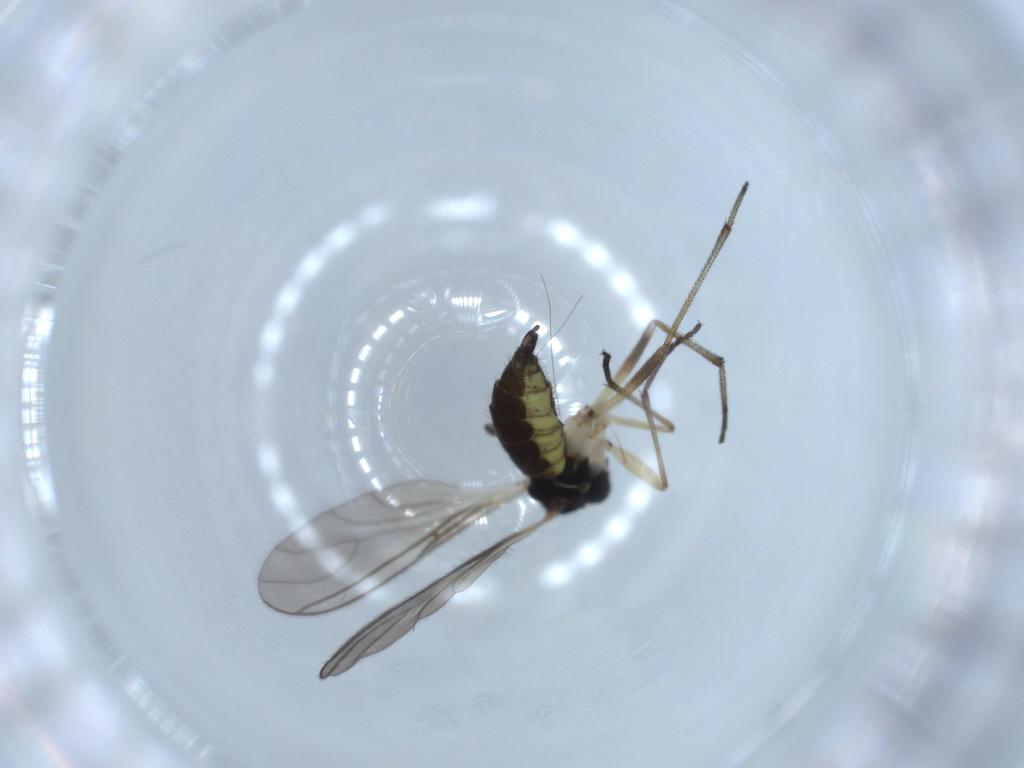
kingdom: Animalia
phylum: Arthropoda
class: Insecta
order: Diptera
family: Sciaridae
